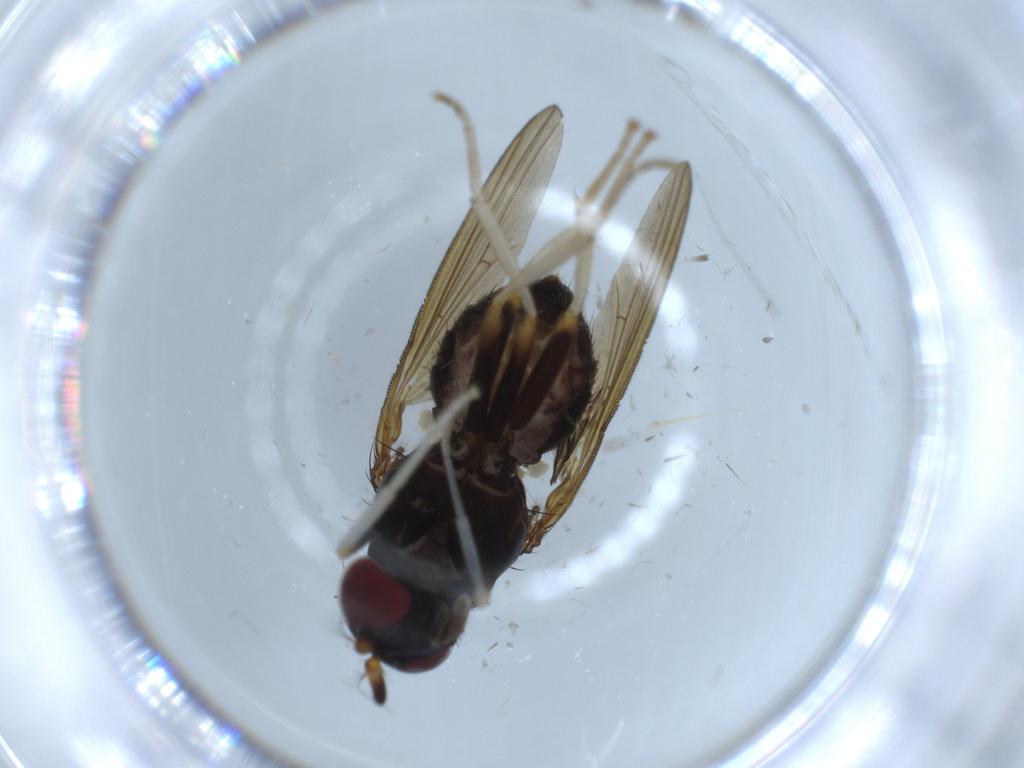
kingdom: Animalia
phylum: Arthropoda
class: Insecta
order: Diptera
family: Lauxaniidae
